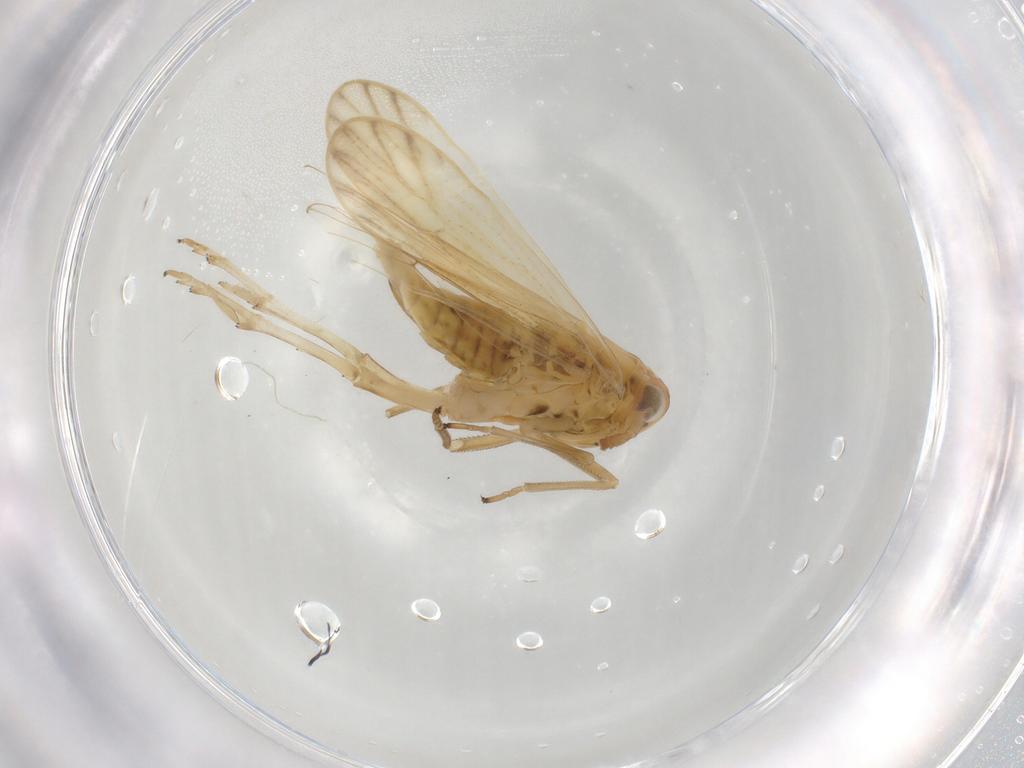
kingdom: Animalia
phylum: Arthropoda
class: Insecta
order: Hemiptera
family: Delphacidae
